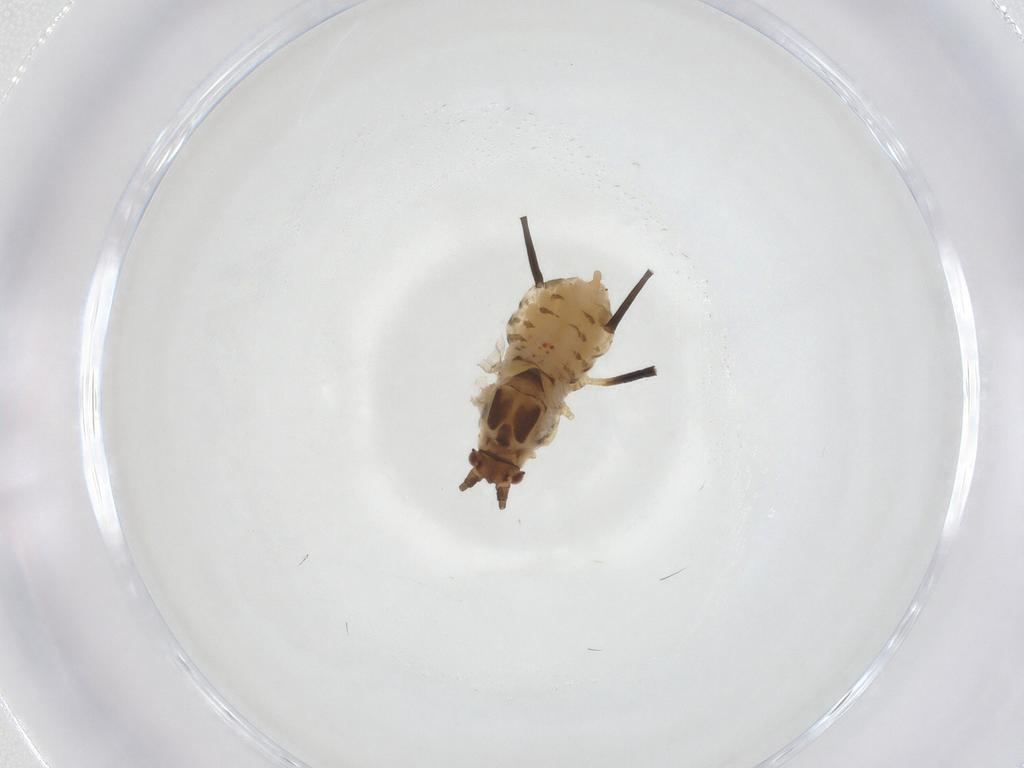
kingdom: Animalia
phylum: Arthropoda
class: Insecta
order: Hemiptera
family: Aphididae
